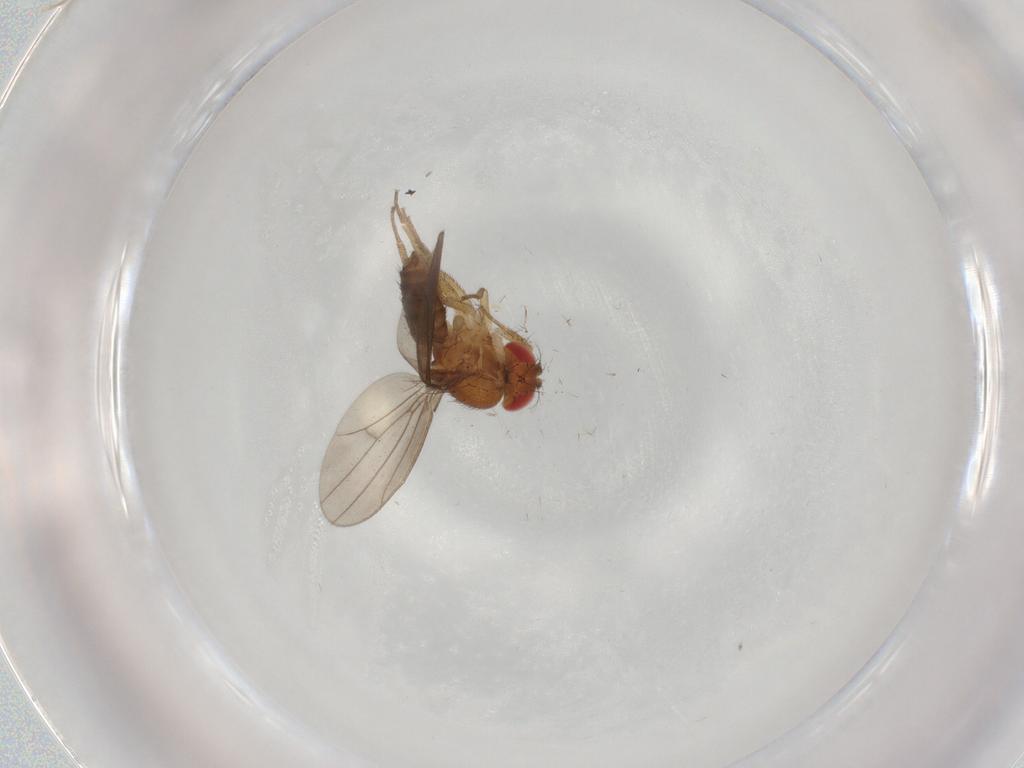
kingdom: Animalia
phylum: Arthropoda
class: Insecta
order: Diptera
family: Drosophilidae
